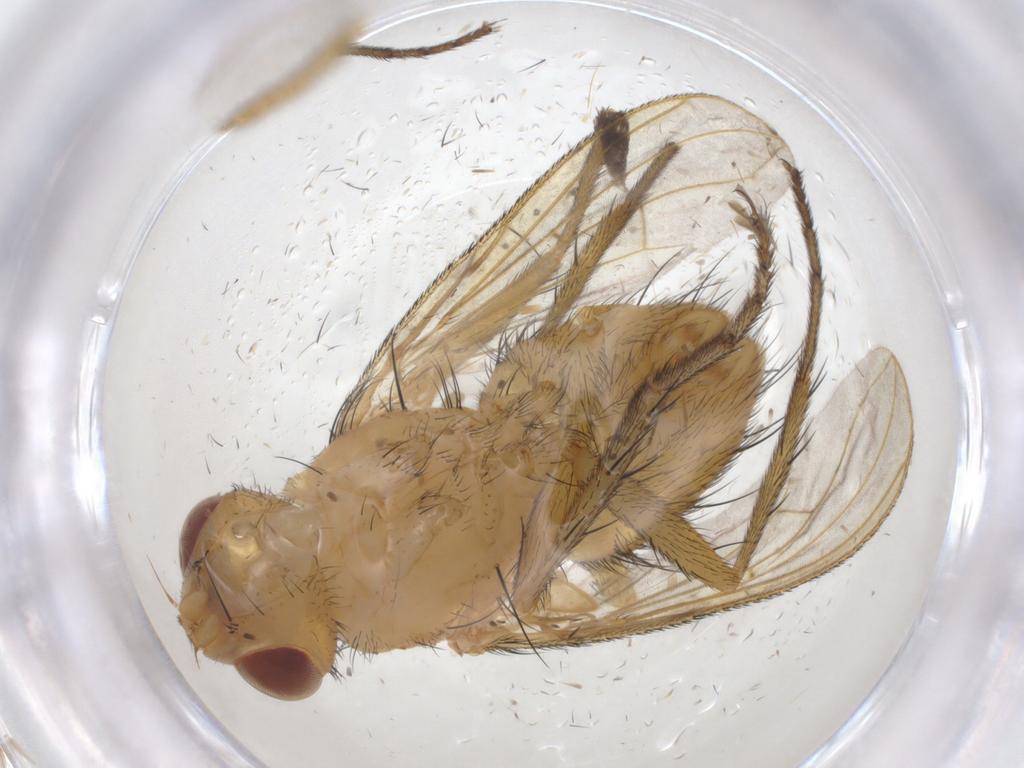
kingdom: Animalia
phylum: Arthropoda
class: Insecta
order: Diptera
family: Tachinidae
